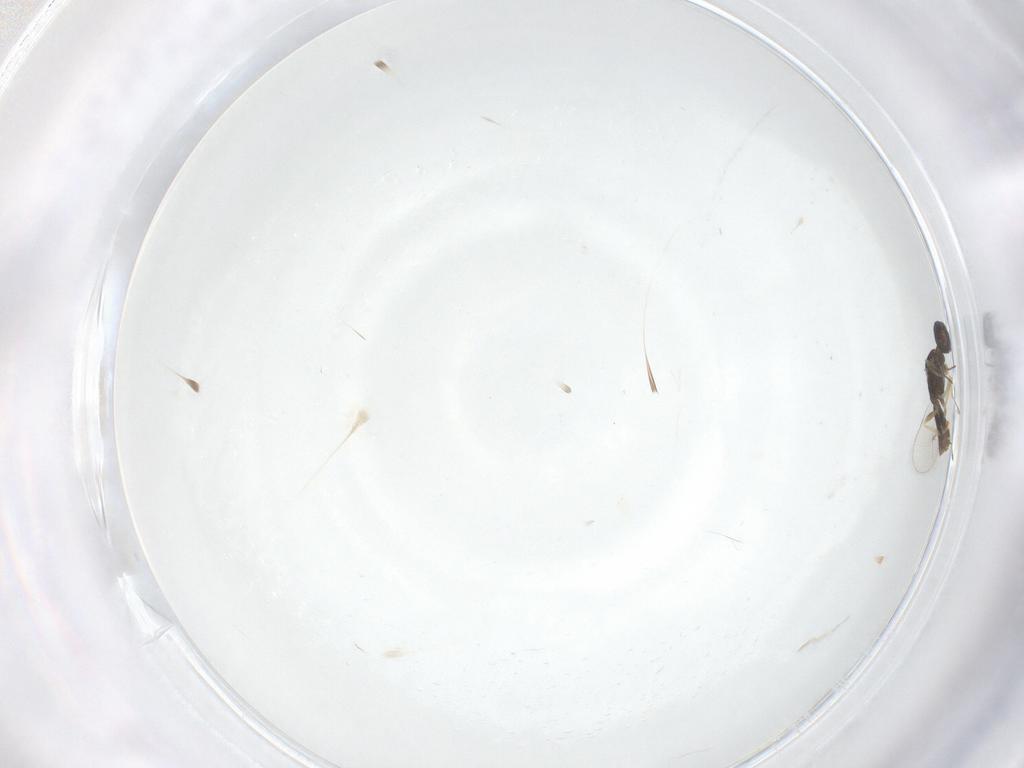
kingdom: Animalia
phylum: Arthropoda
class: Insecta
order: Hymenoptera
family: Eulophidae
